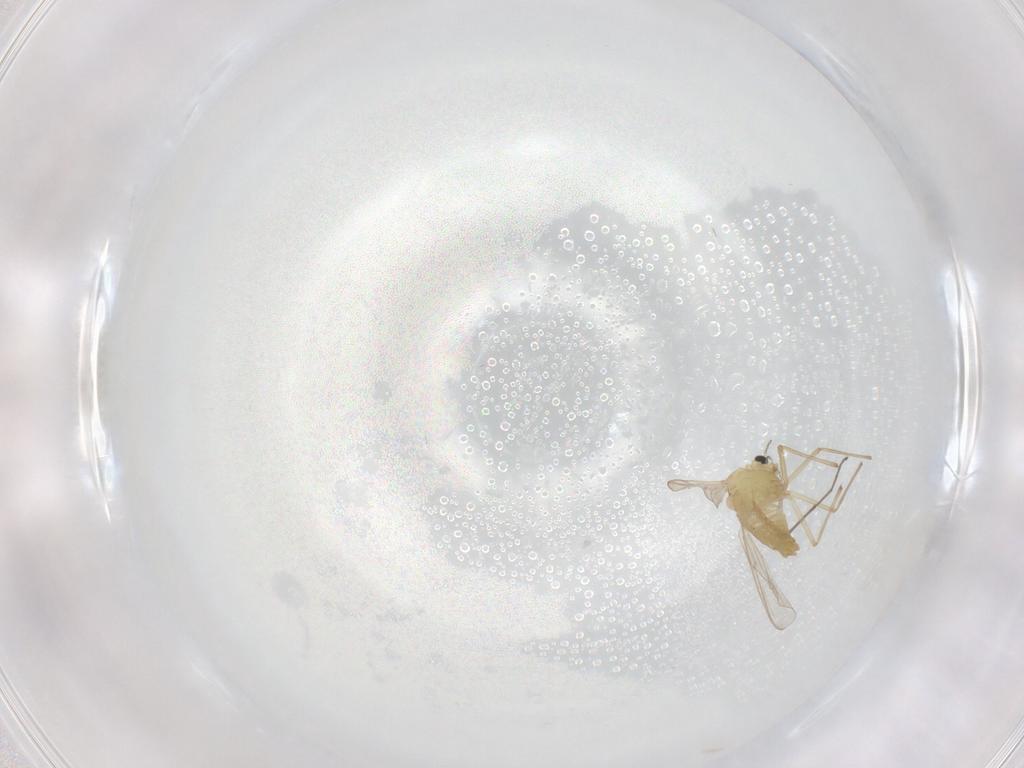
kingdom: Animalia
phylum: Arthropoda
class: Insecta
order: Diptera
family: Chironomidae
